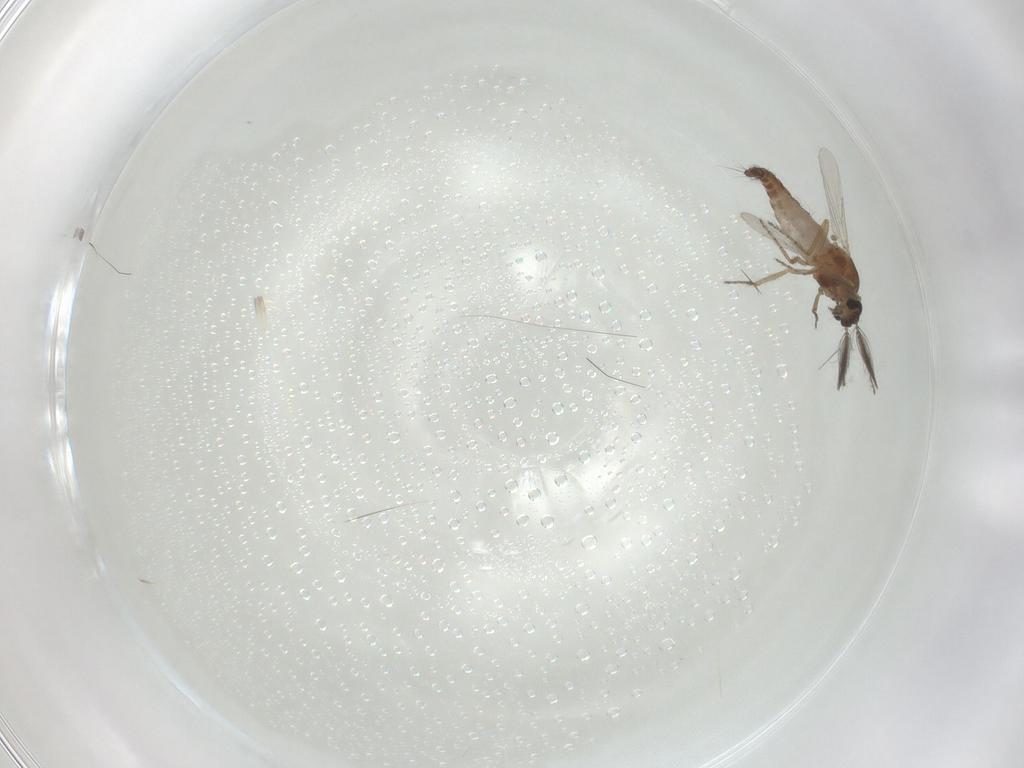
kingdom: Animalia
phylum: Arthropoda
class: Insecta
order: Diptera
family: Ceratopogonidae
